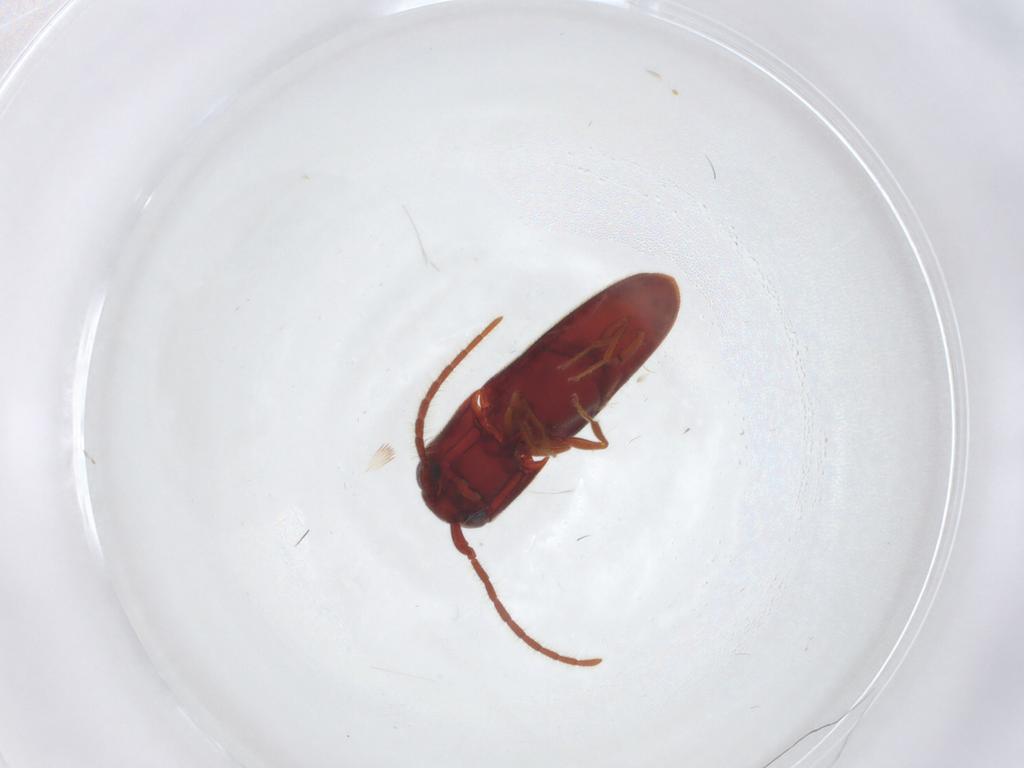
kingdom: Animalia
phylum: Arthropoda
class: Insecta
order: Coleoptera
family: Eucnemidae
